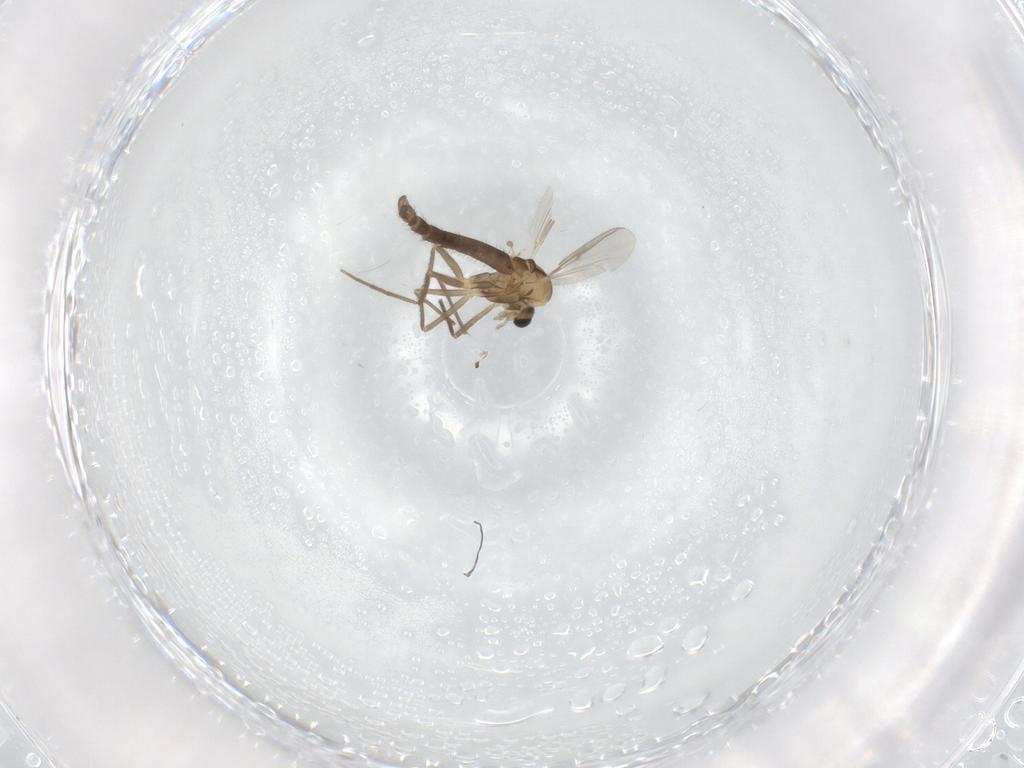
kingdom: Animalia
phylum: Arthropoda
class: Insecta
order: Diptera
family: Chironomidae
